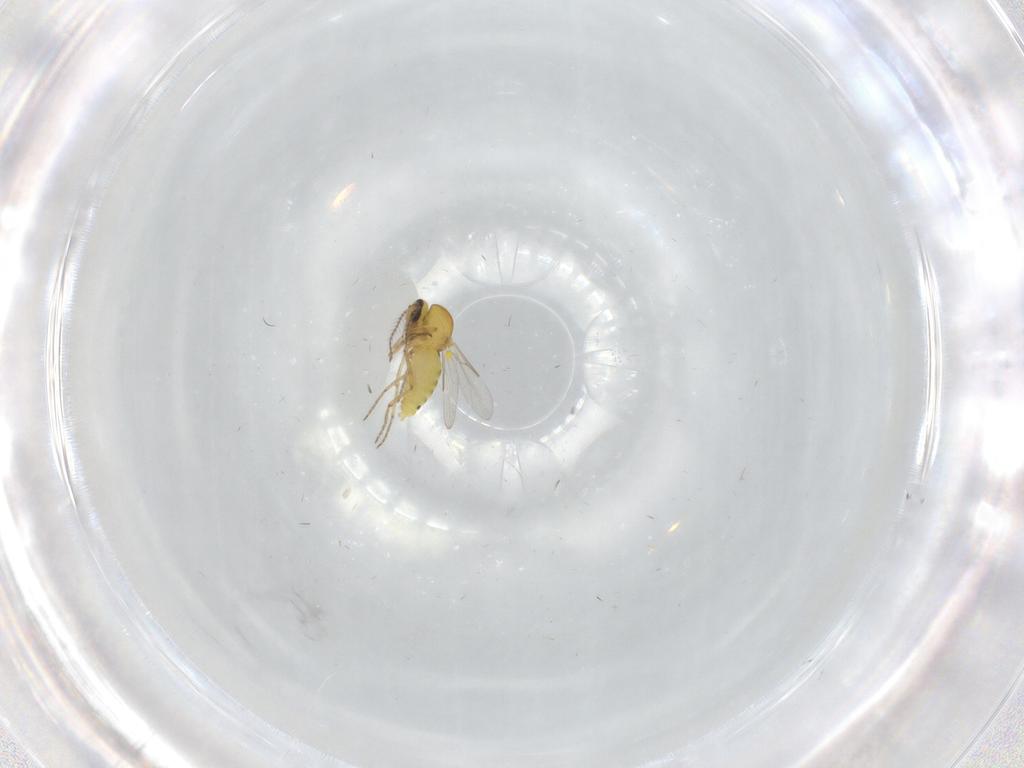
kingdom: Animalia
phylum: Arthropoda
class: Insecta
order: Diptera
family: Ceratopogonidae
